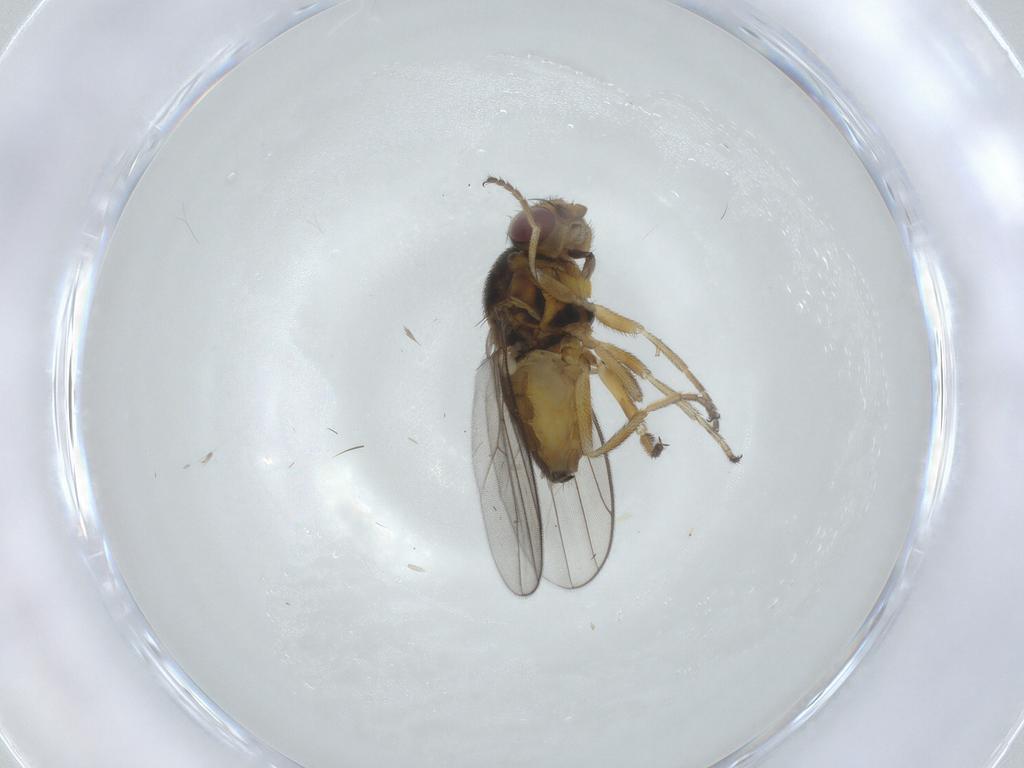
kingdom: Animalia
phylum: Arthropoda
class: Insecta
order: Diptera
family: Chloropidae
